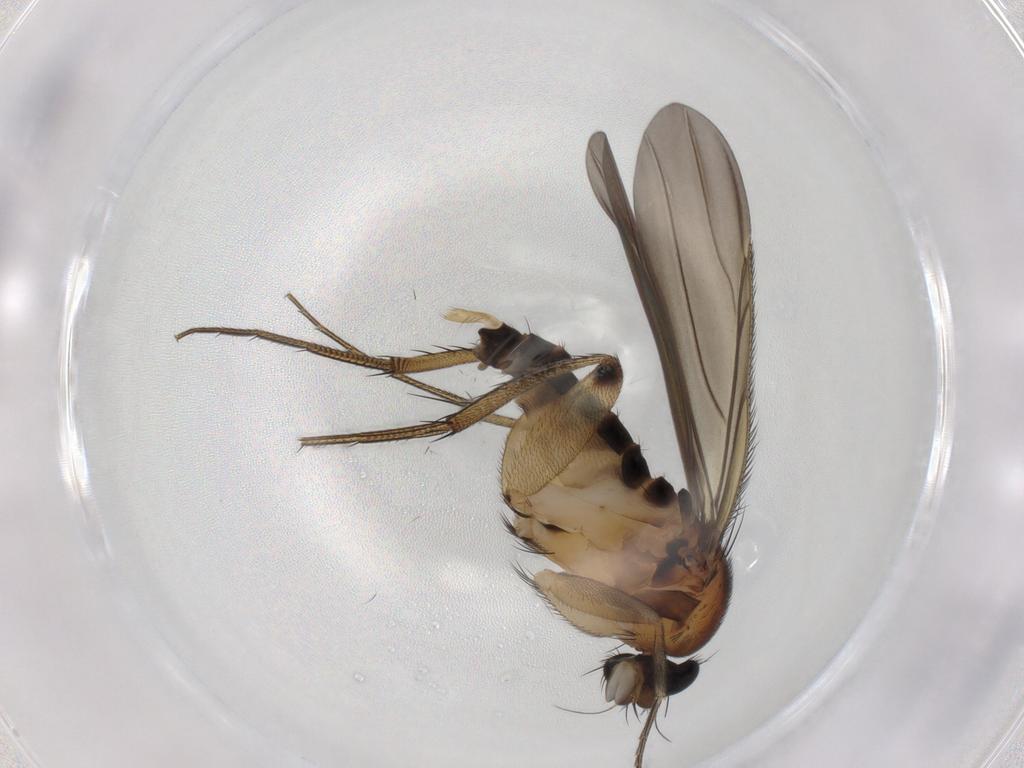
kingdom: Animalia
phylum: Arthropoda
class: Insecta
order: Diptera
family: Phoridae
